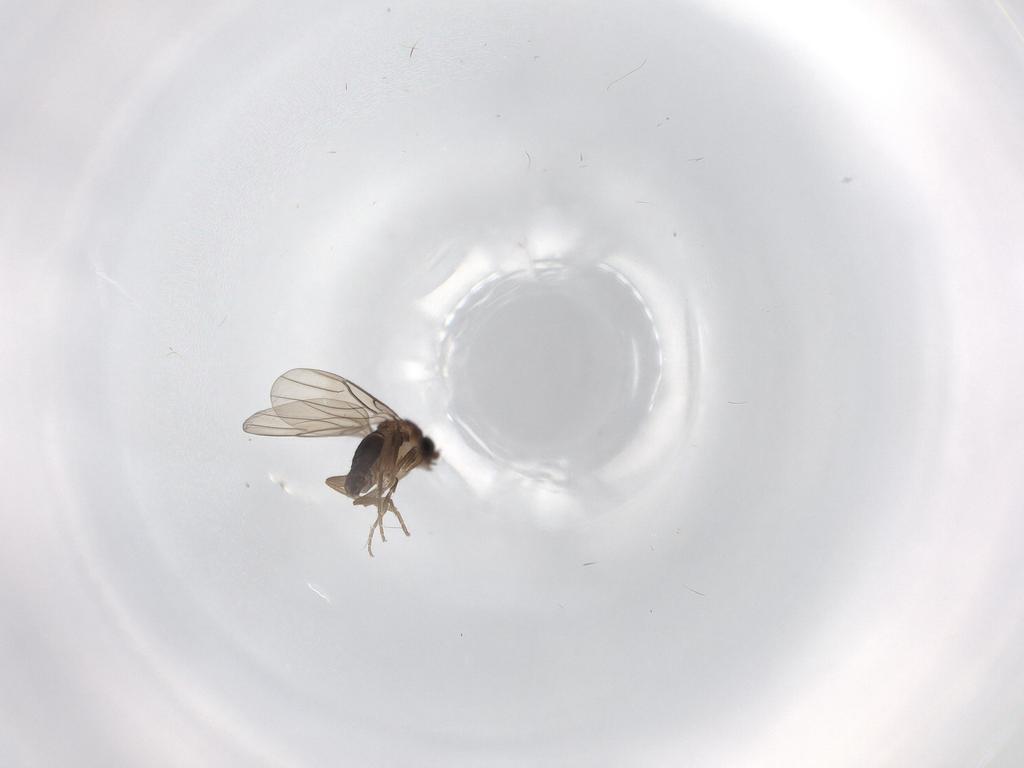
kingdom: Animalia
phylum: Arthropoda
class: Insecta
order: Diptera
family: Sphaeroceridae
